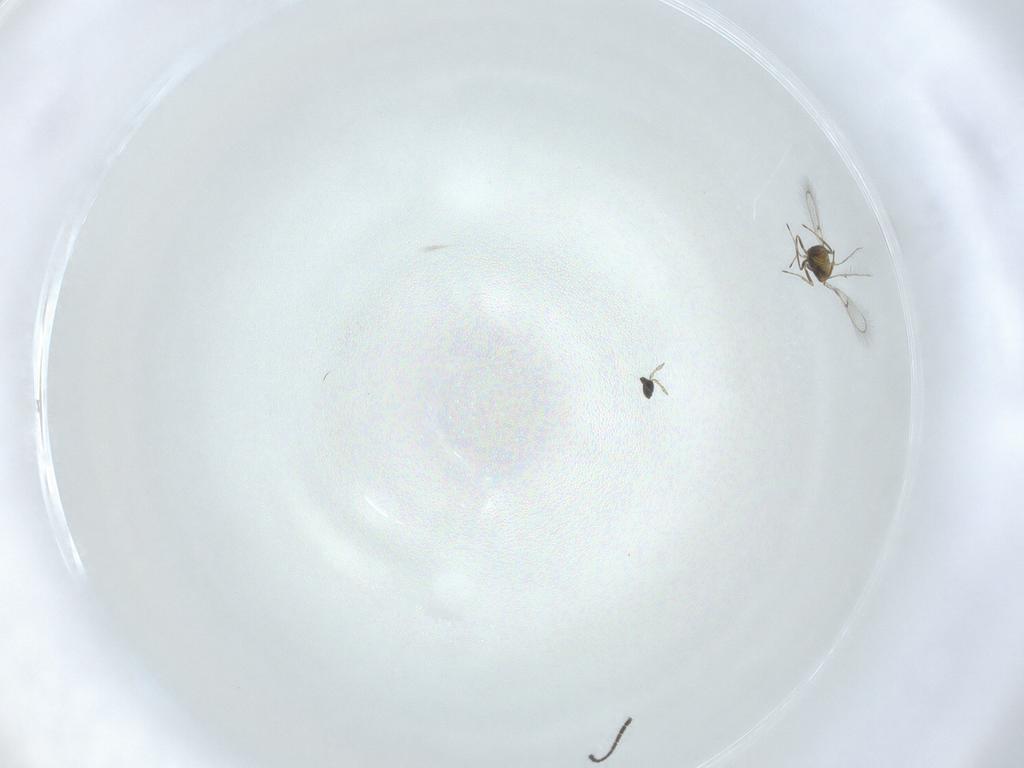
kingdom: Animalia
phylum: Arthropoda
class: Insecta
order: Hymenoptera
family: Trichogrammatidae
